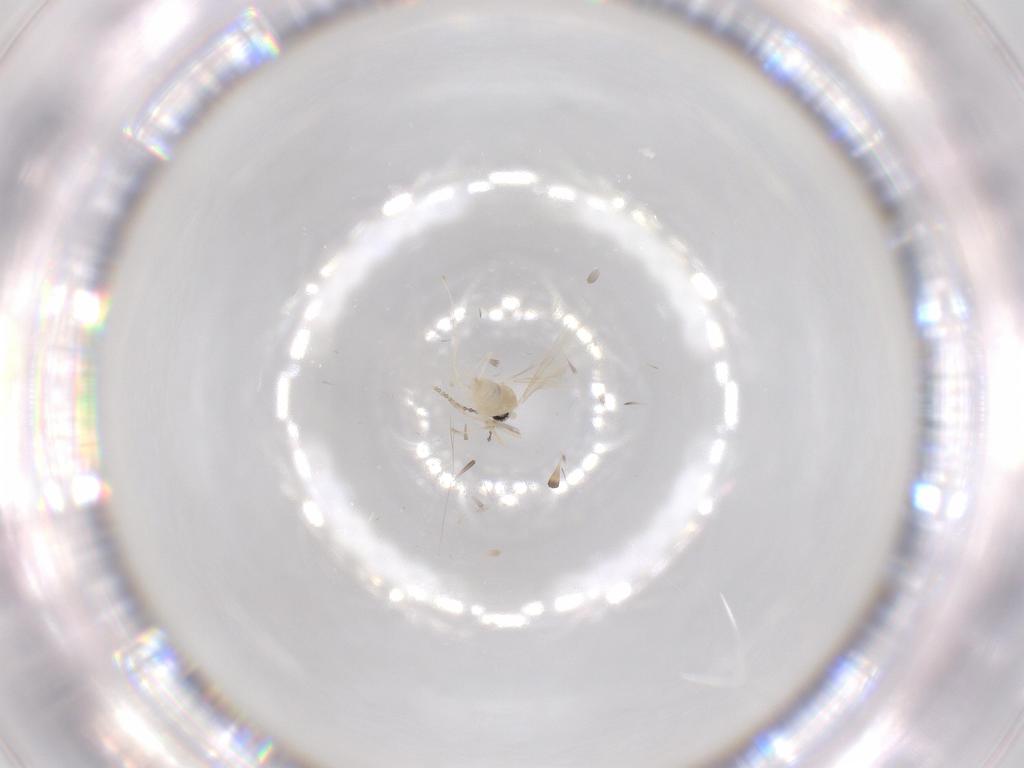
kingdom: Animalia
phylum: Arthropoda
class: Insecta
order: Diptera
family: Cecidomyiidae
